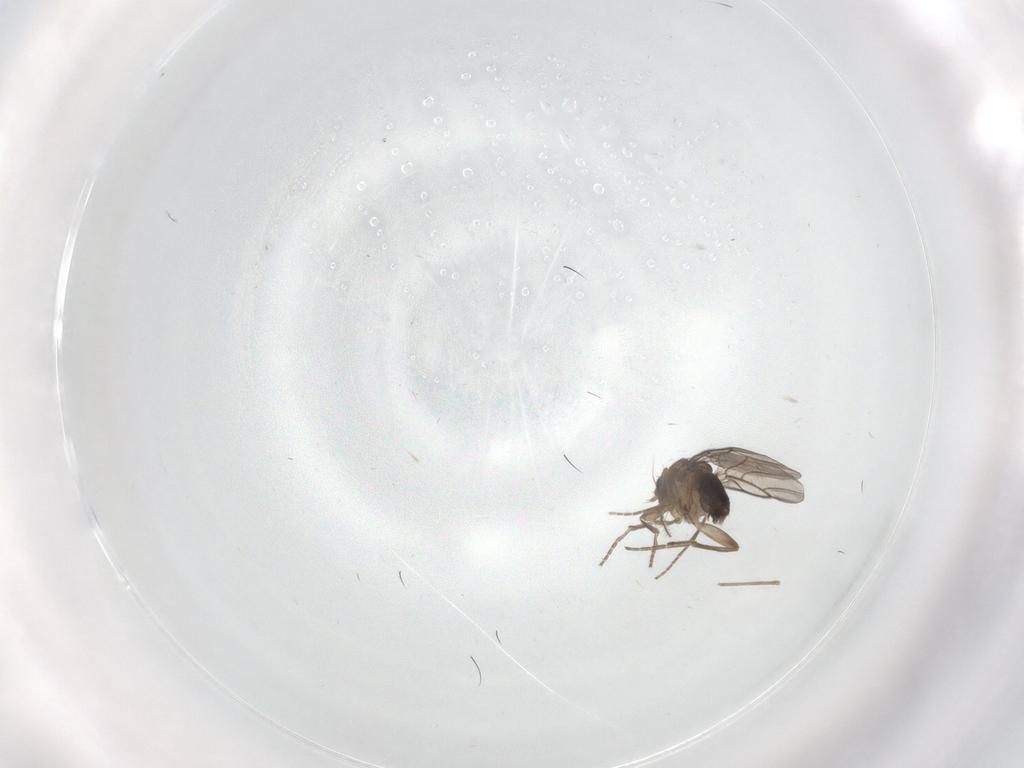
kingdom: Animalia
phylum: Arthropoda
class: Insecta
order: Diptera
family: Phoridae
